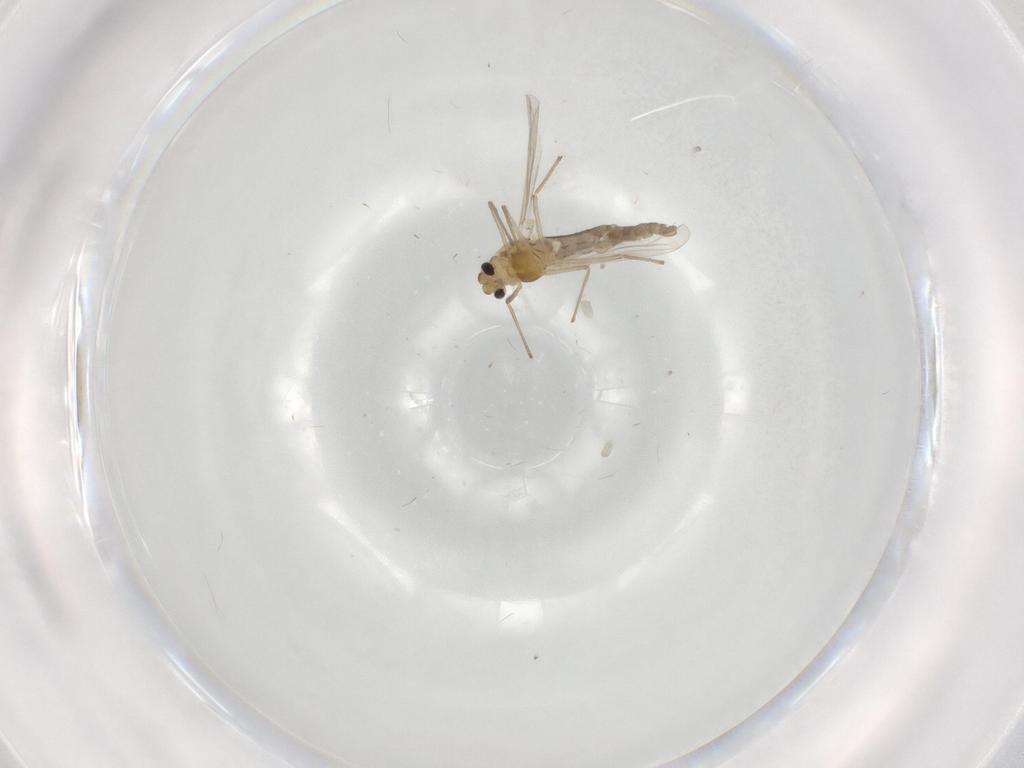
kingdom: Animalia
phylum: Arthropoda
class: Insecta
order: Diptera
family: Chironomidae
